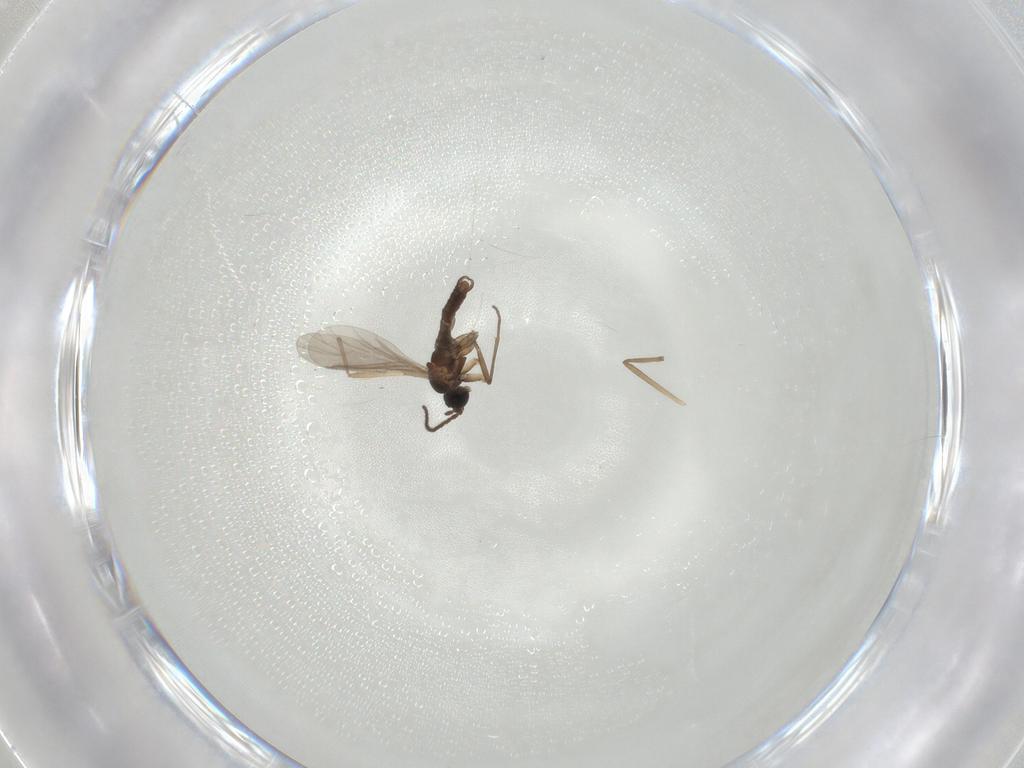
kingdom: Animalia
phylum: Arthropoda
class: Insecta
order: Diptera
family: Sciaridae
